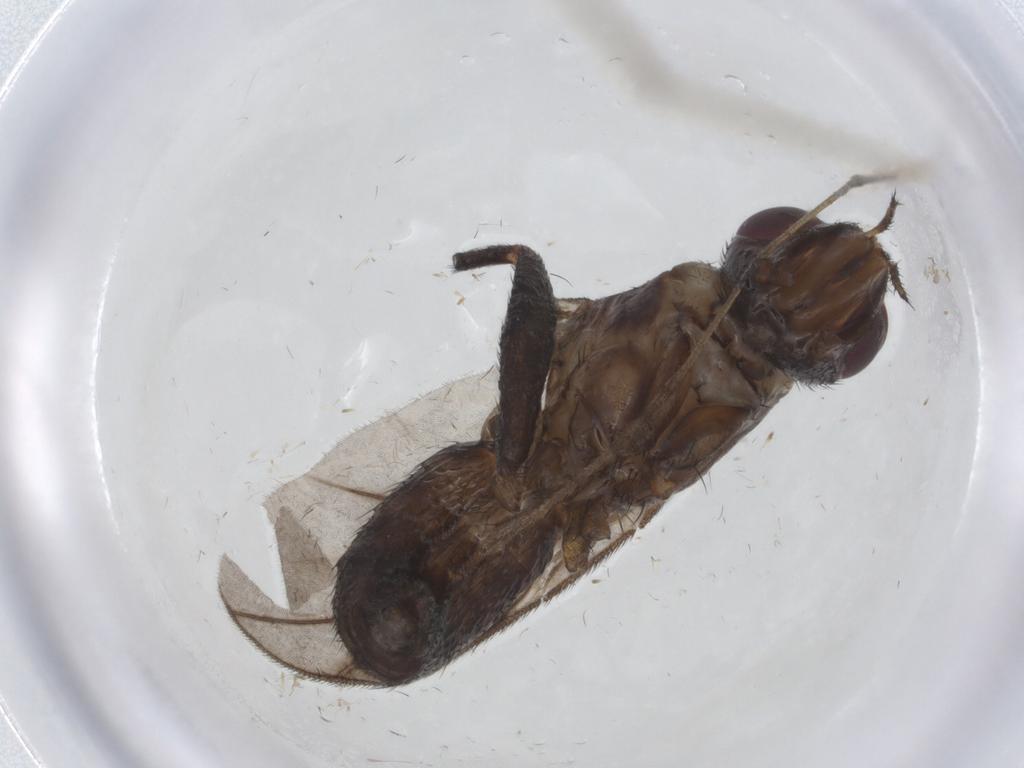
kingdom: Animalia
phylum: Arthropoda
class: Insecta
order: Diptera
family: Calliphoridae
